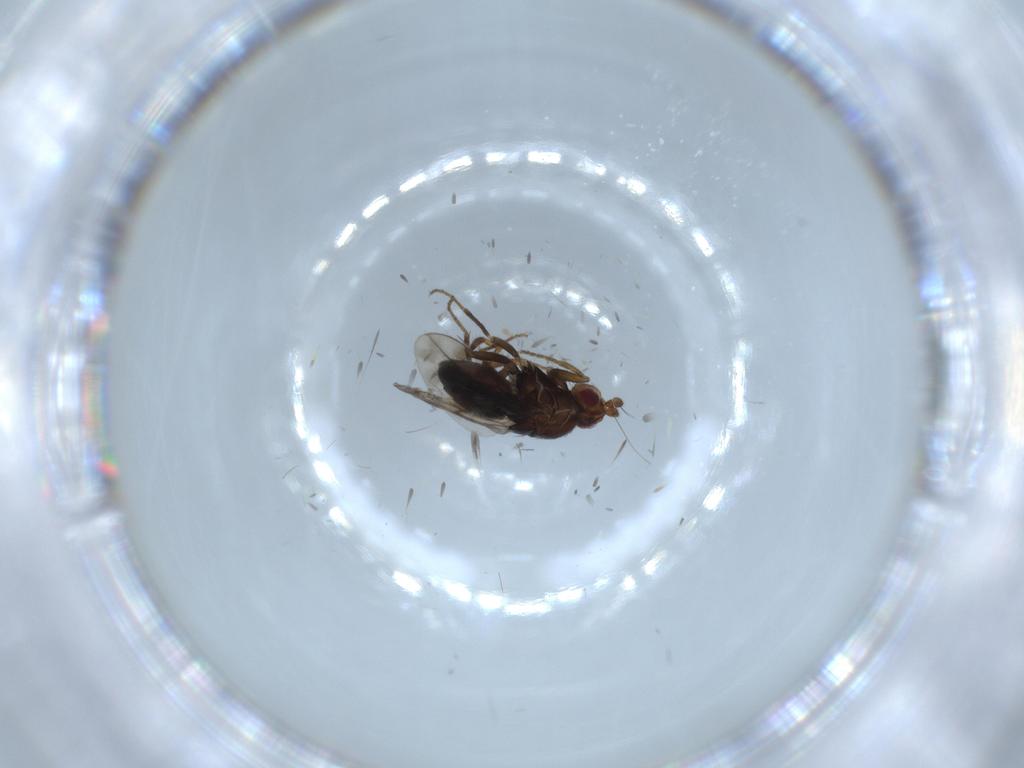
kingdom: Animalia
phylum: Arthropoda
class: Insecta
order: Diptera
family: Sphaeroceridae
